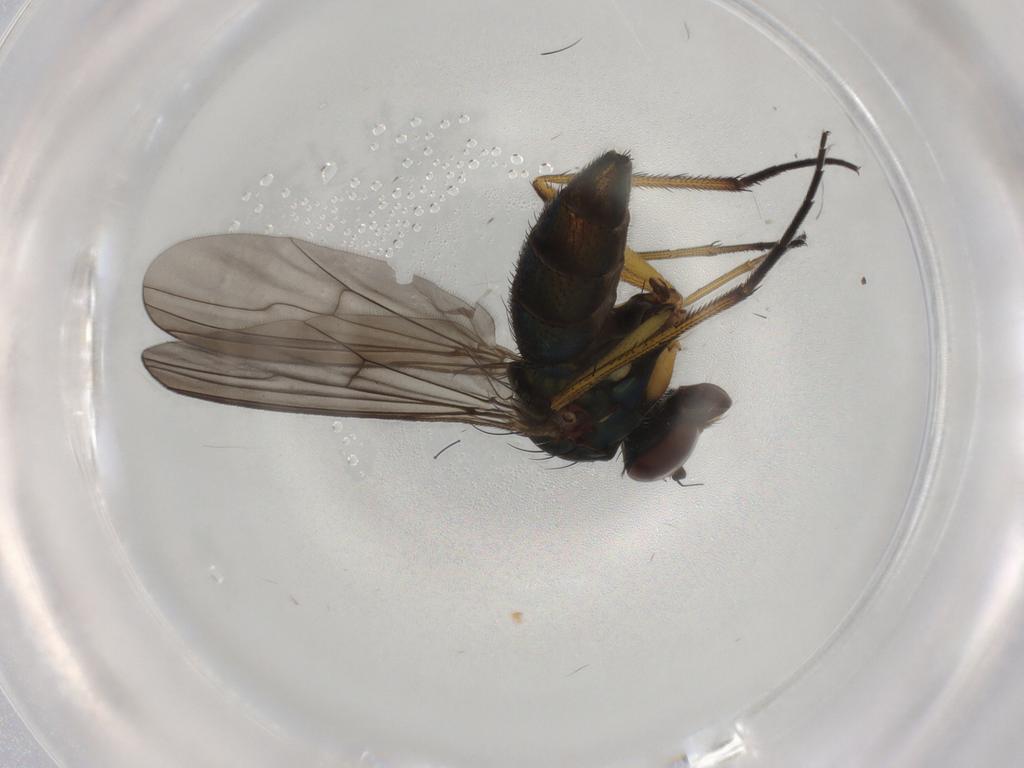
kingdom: Animalia
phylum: Arthropoda
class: Insecta
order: Diptera
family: Dolichopodidae
